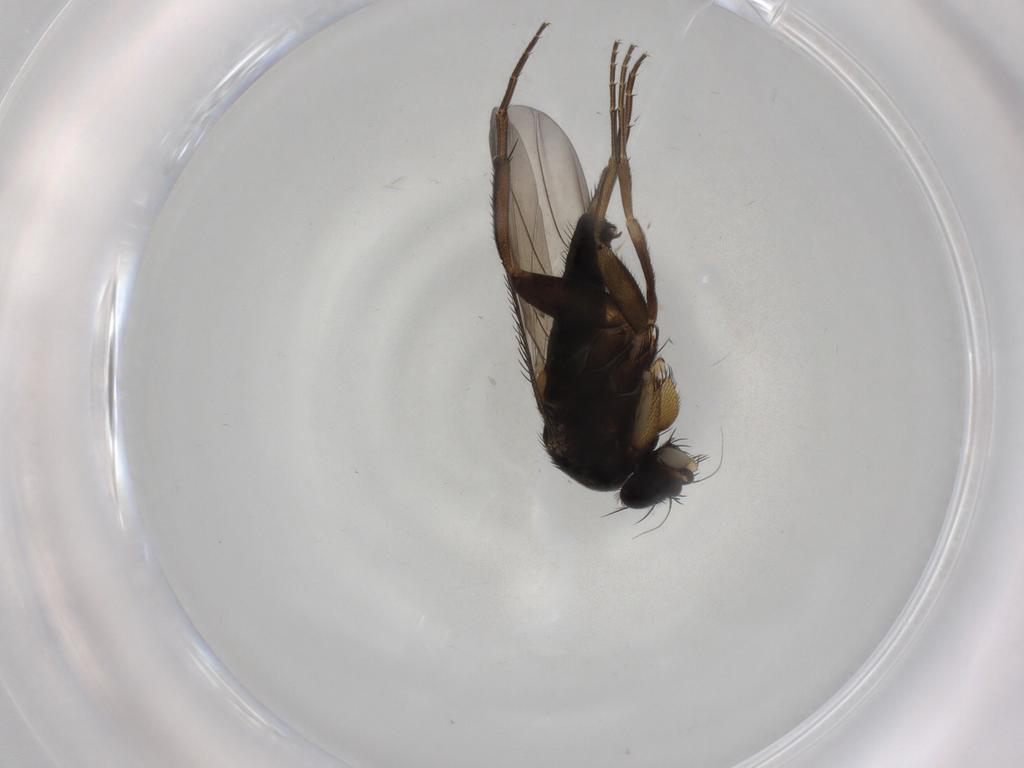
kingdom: Animalia
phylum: Arthropoda
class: Insecta
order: Diptera
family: Phoridae
